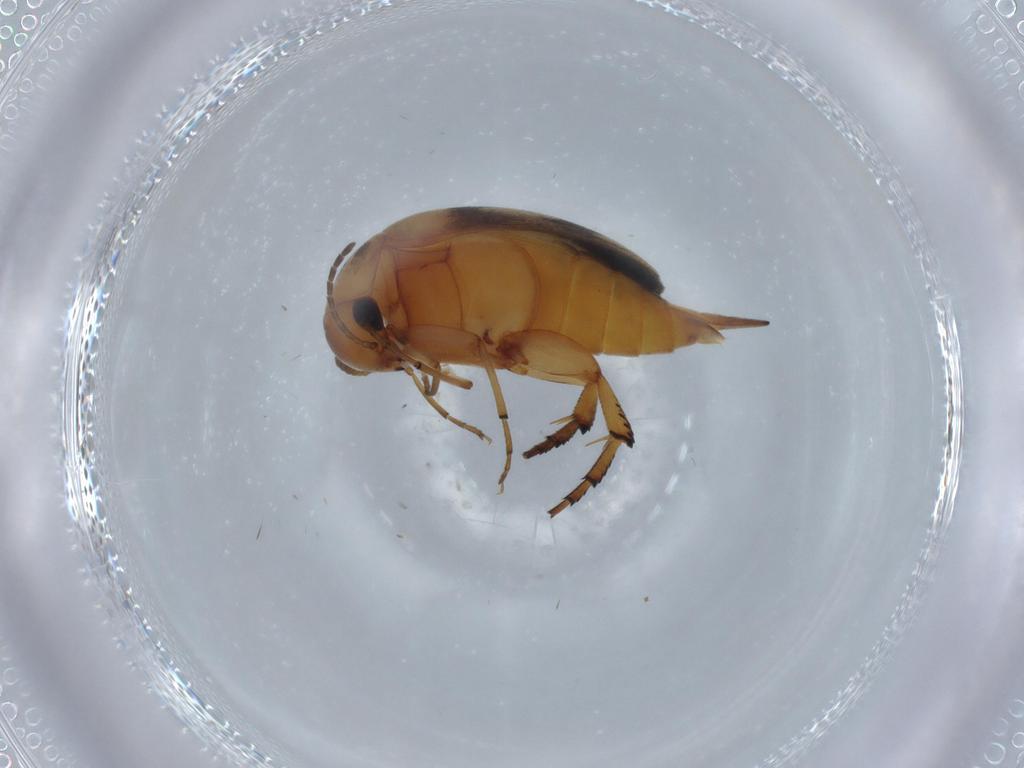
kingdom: Animalia
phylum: Arthropoda
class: Insecta
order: Coleoptera
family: Mordellidae
